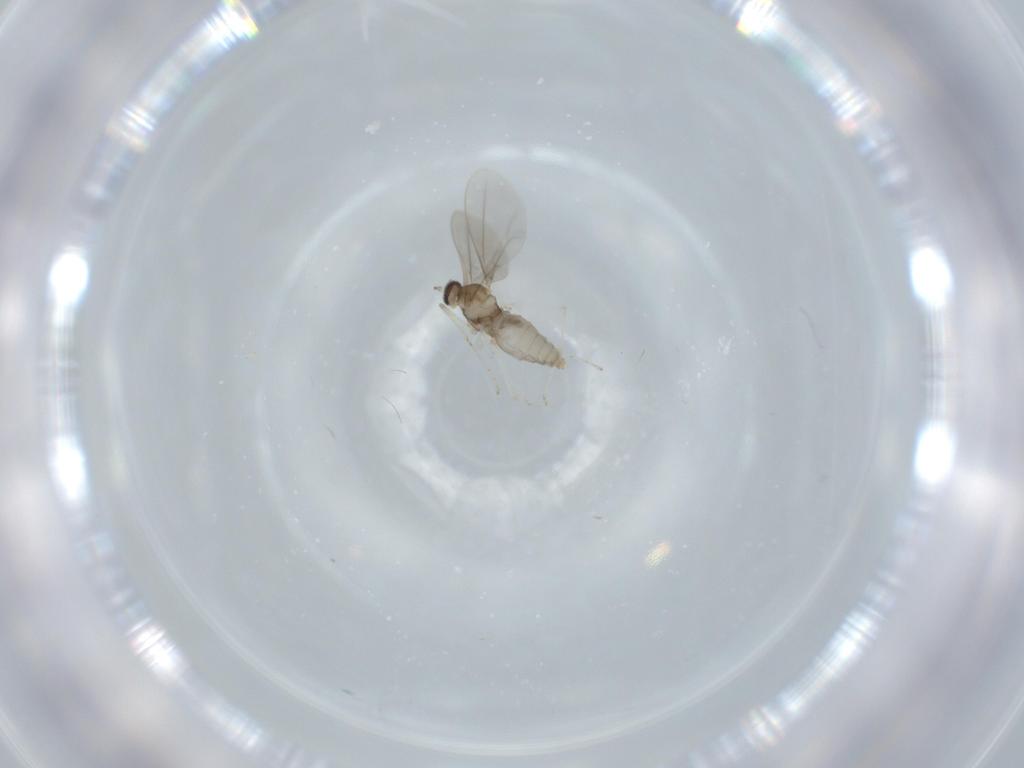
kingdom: Animalia
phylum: Arthropoda
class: Insecta
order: Diptera
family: Cecidomyiidae
